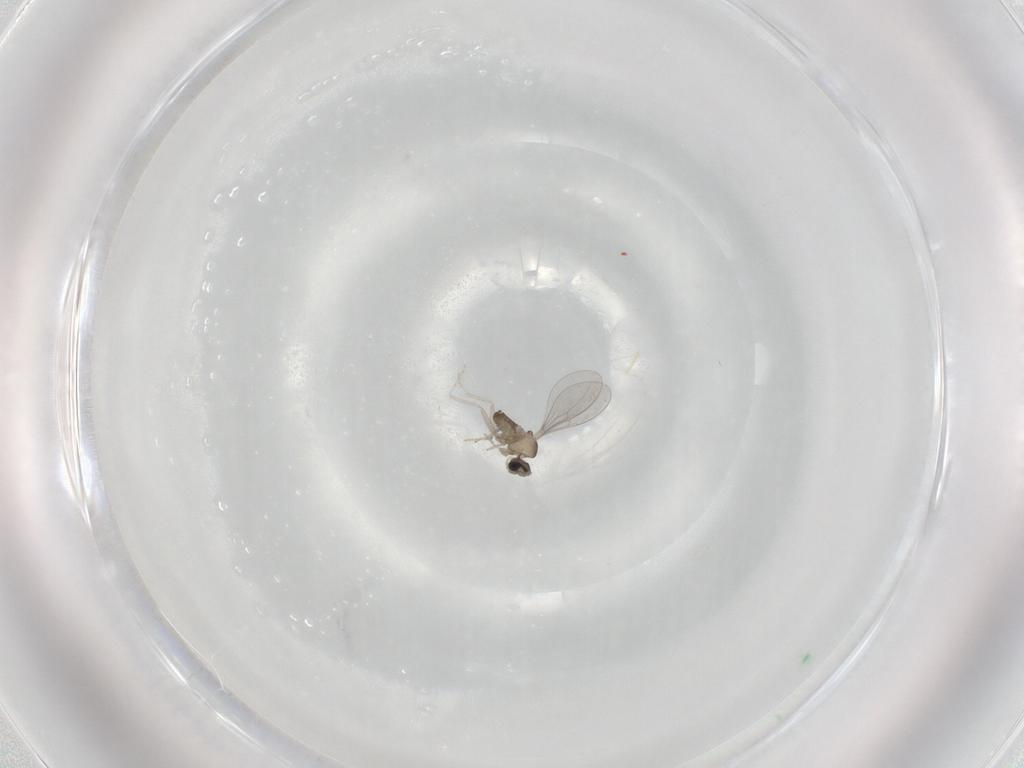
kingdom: Animalia
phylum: Arthropoda
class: Insecta
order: Diptera
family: Cecidomyiidae
